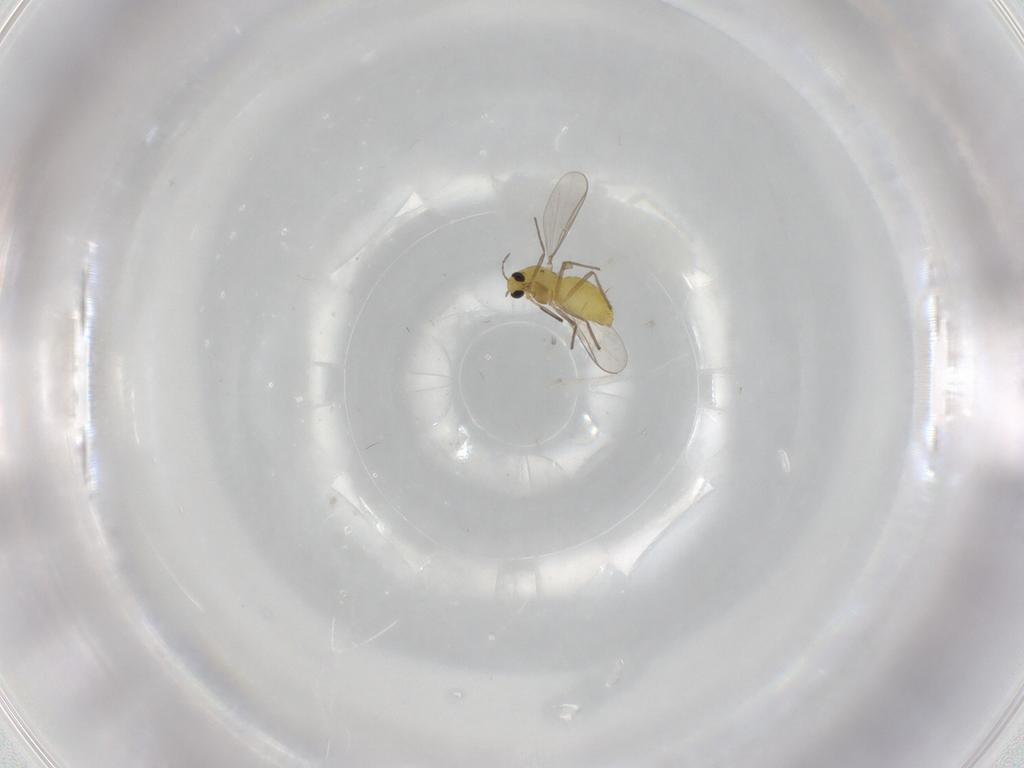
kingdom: Animalia
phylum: Arthropoda
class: Insecta
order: Diptera
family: Chironomidae
